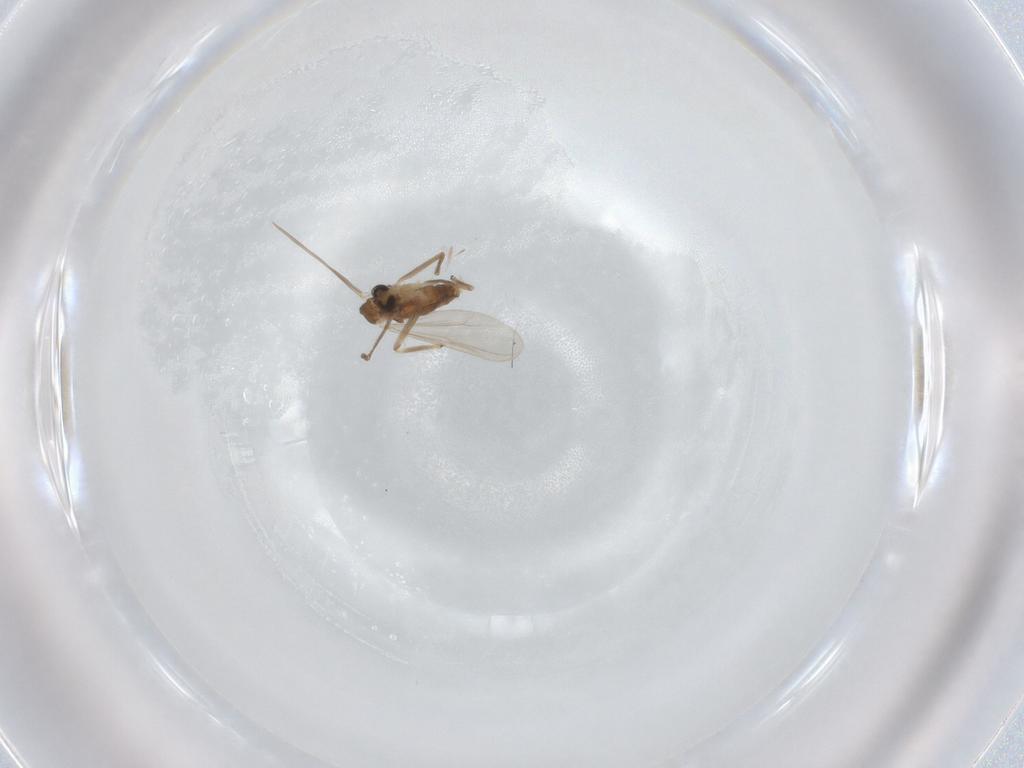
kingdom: Animalia
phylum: Arthropoda
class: Insecta
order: Diptera
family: Chironomidae
